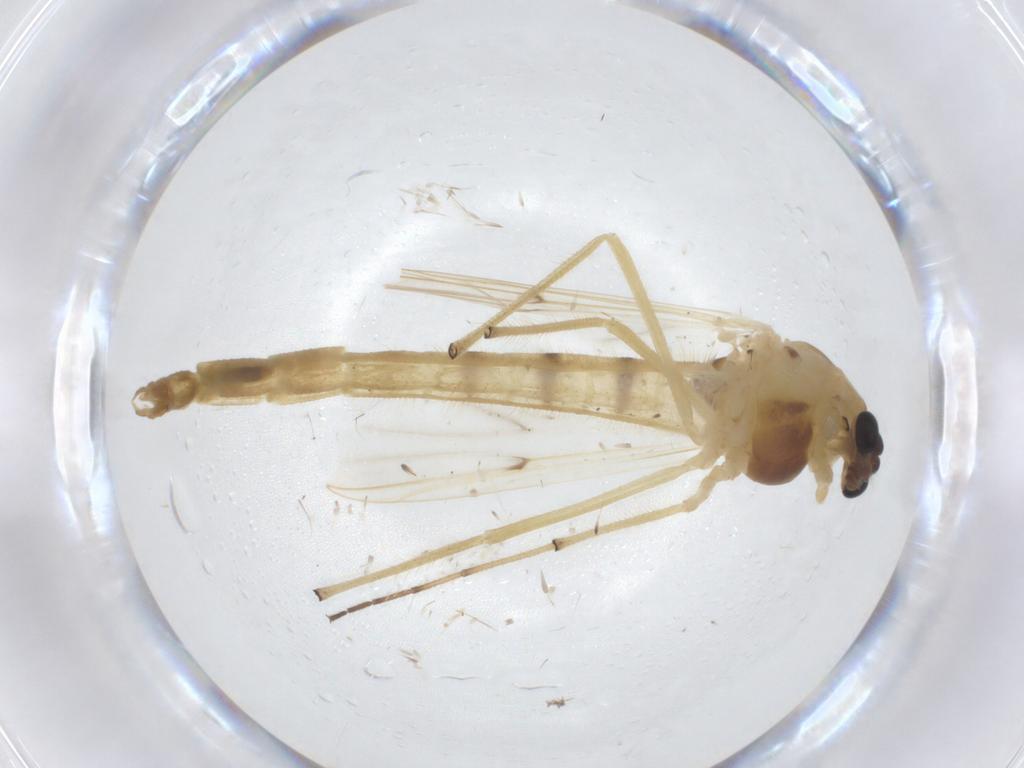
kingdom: Animalia
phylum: Arthropoda
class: Insecta
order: Diptera
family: Chironomidae
